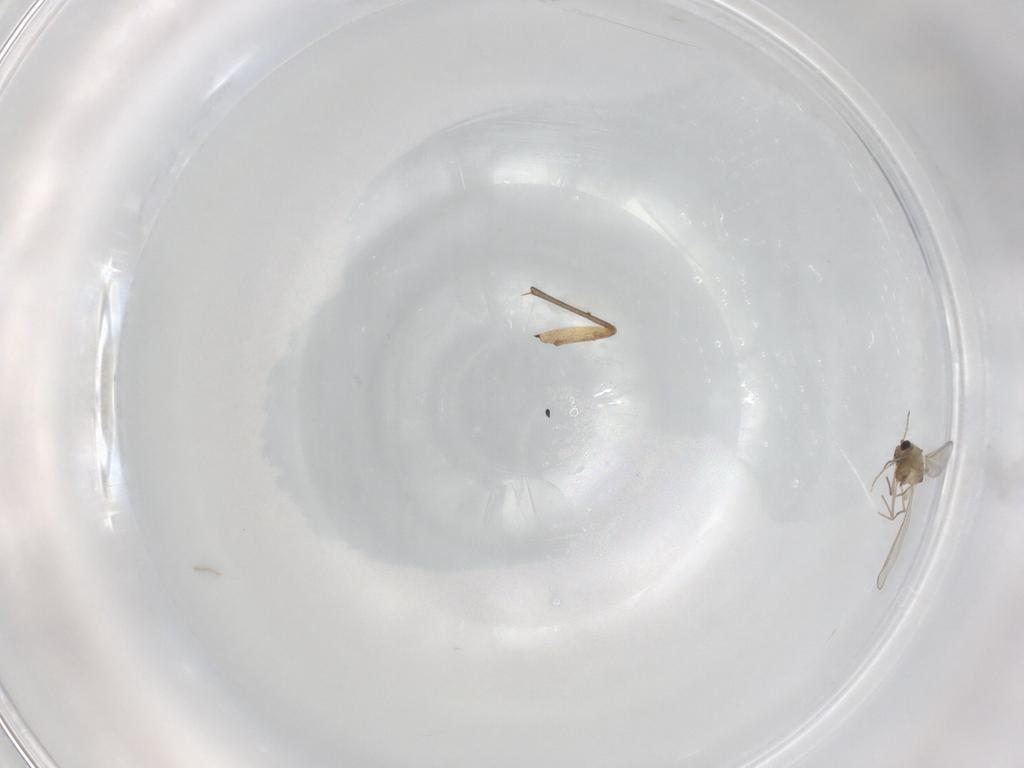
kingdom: Animalia
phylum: Arthropoda
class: Insecta
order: Diptera
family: Chironomidae
